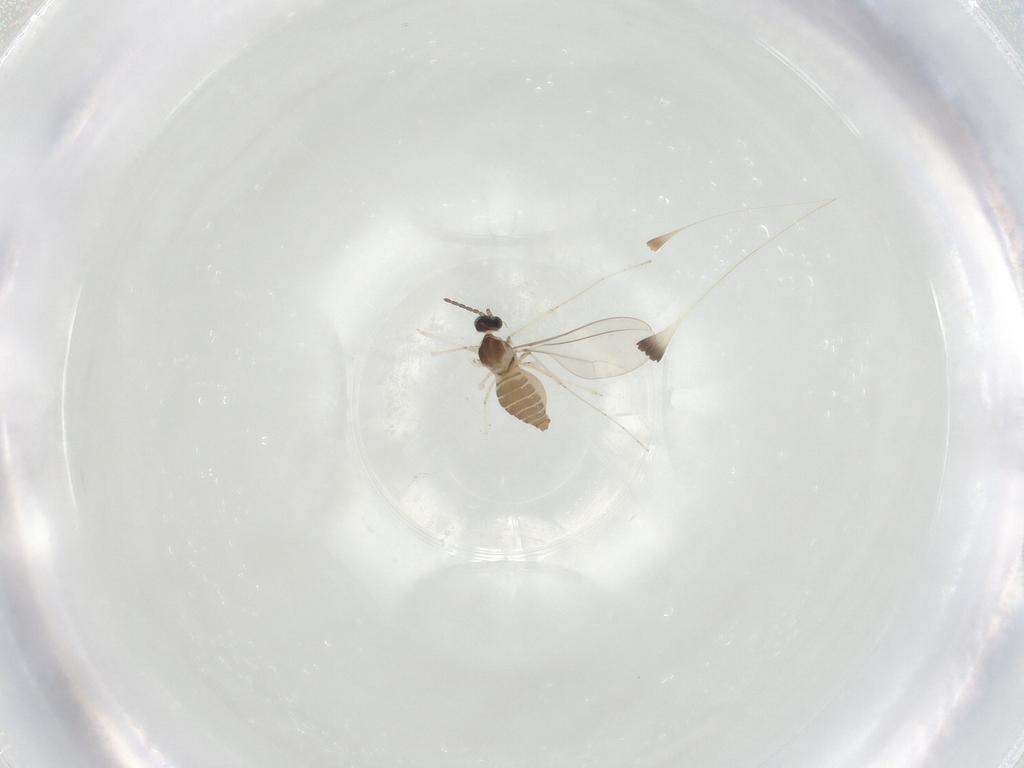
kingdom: Animalia
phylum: Arthropoda
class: Insecta
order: Diptera
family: Cecidomyiidae
